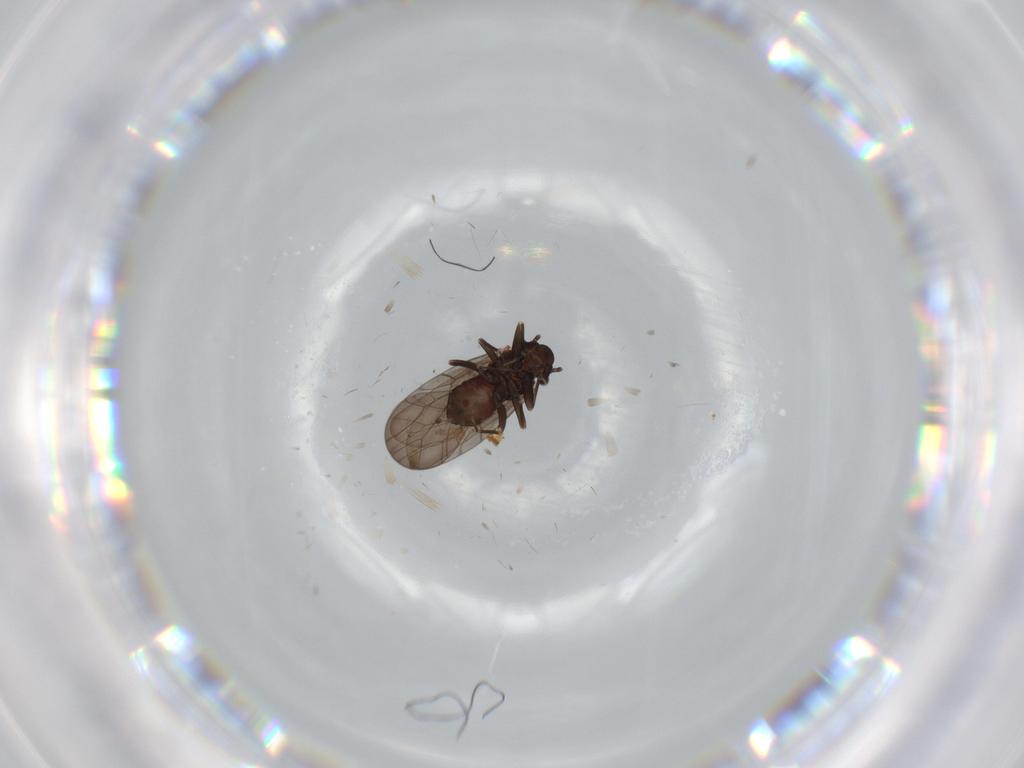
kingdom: Animalia
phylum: Arthropoda
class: Insecta
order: Psocodea
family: Lepidopsocidae
